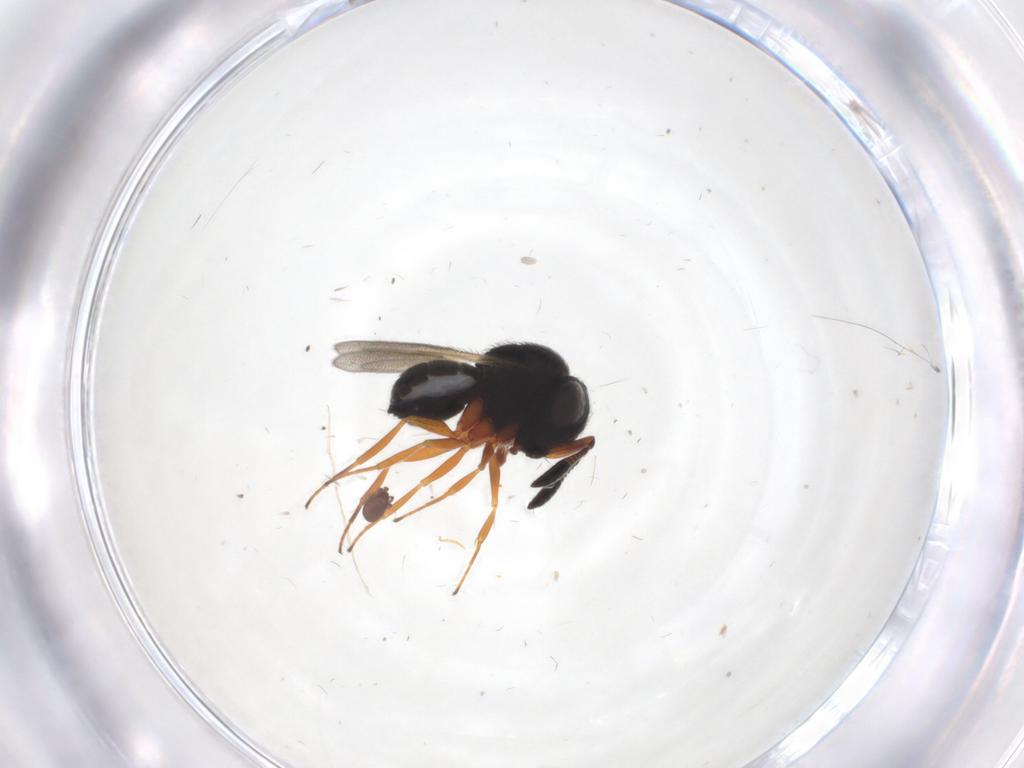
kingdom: Animalia
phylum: Arthropoda
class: Insecta
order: Hymenoptera
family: Scelionidae
